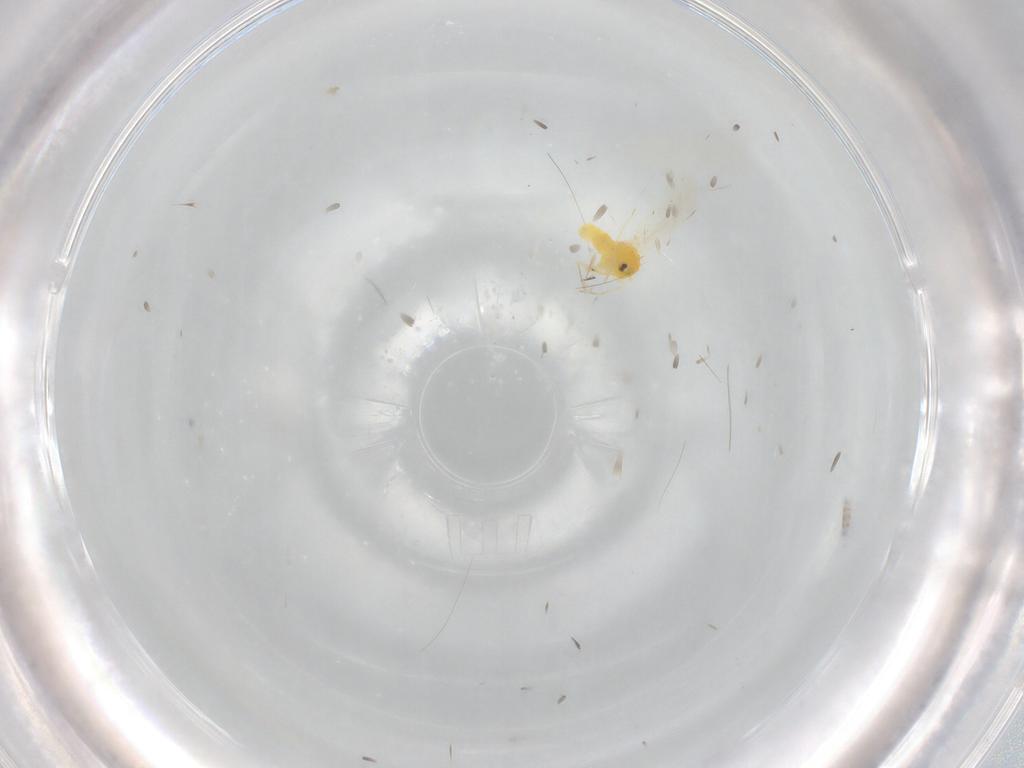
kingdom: Animalia
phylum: Arthropoda
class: Insecta
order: Hemiptera
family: Aleyrodidae
